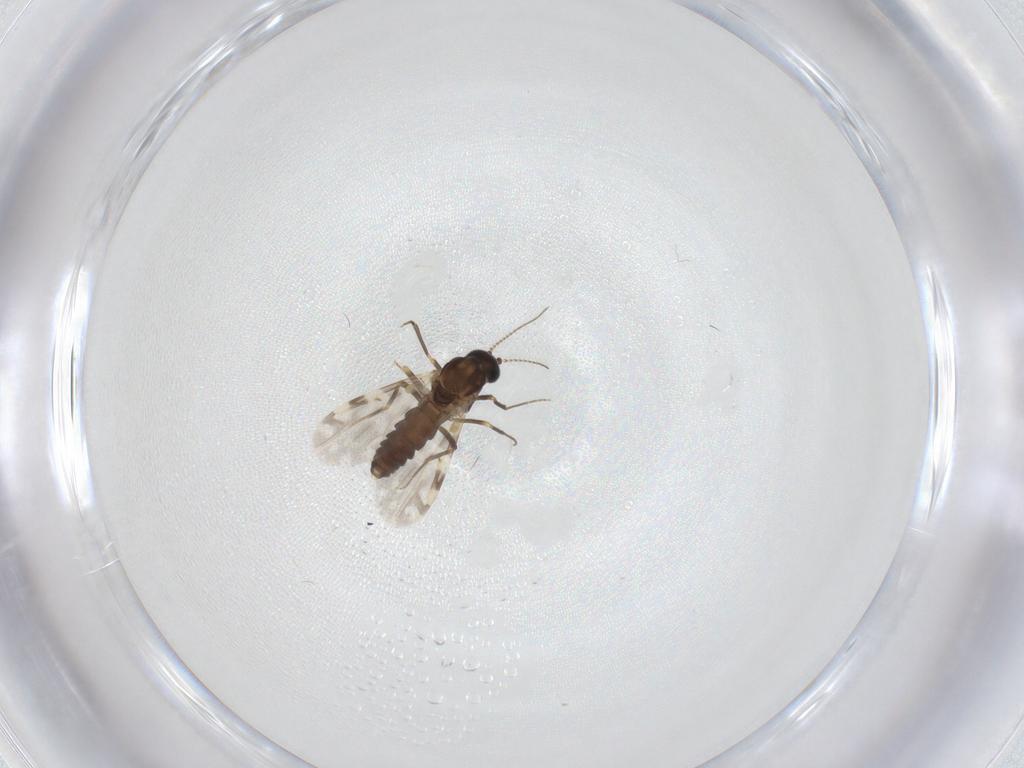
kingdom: Animalia
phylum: Arthropoda
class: Insecta
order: Diptera
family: Ceratopogonidae
